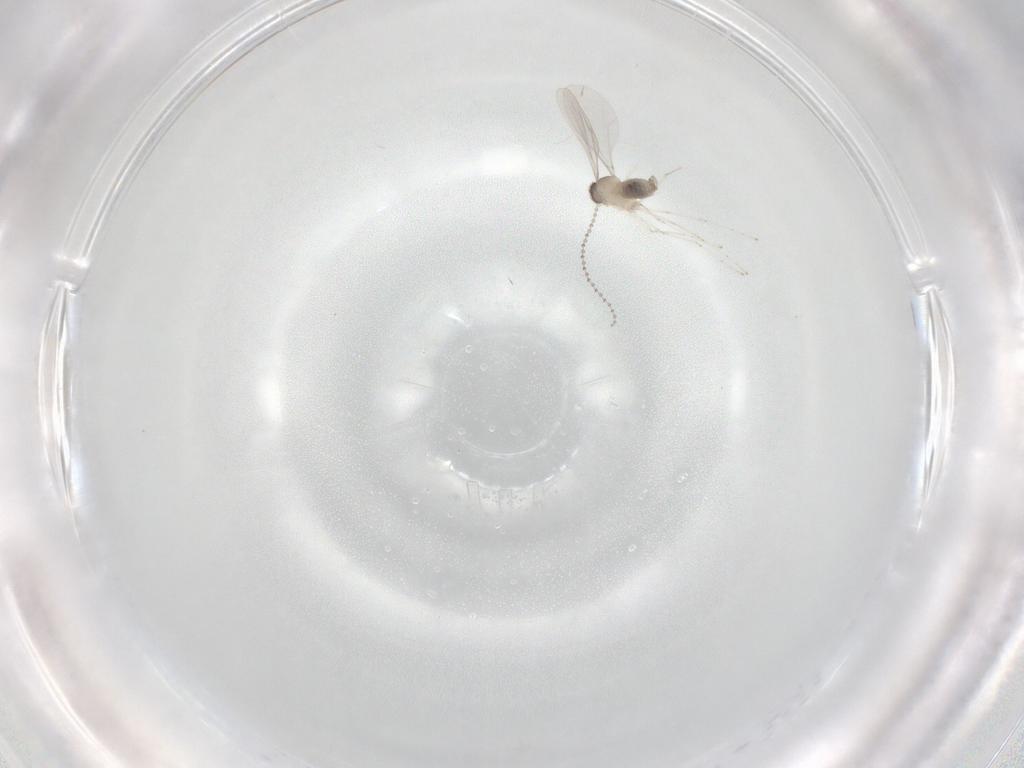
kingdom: Animalia
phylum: Arthropoda
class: Insecta
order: Diptera
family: Cecidomyiidae
